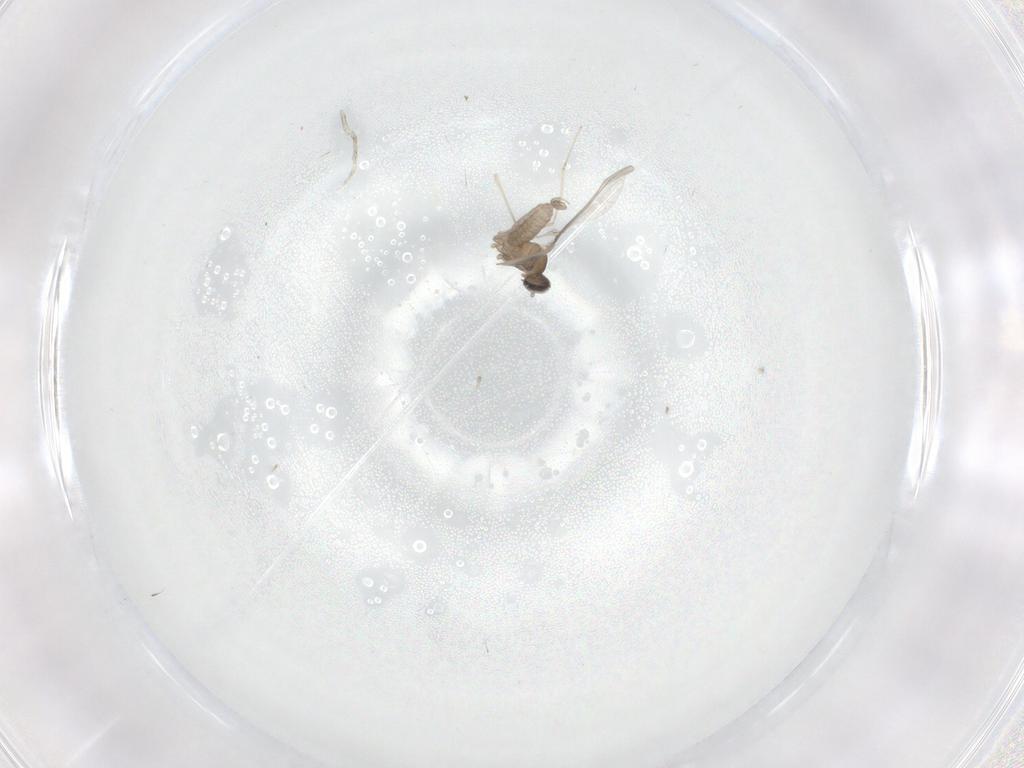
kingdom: Animalia
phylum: Arthropoda
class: Insecta
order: Diptera
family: Cecidomyiidae
